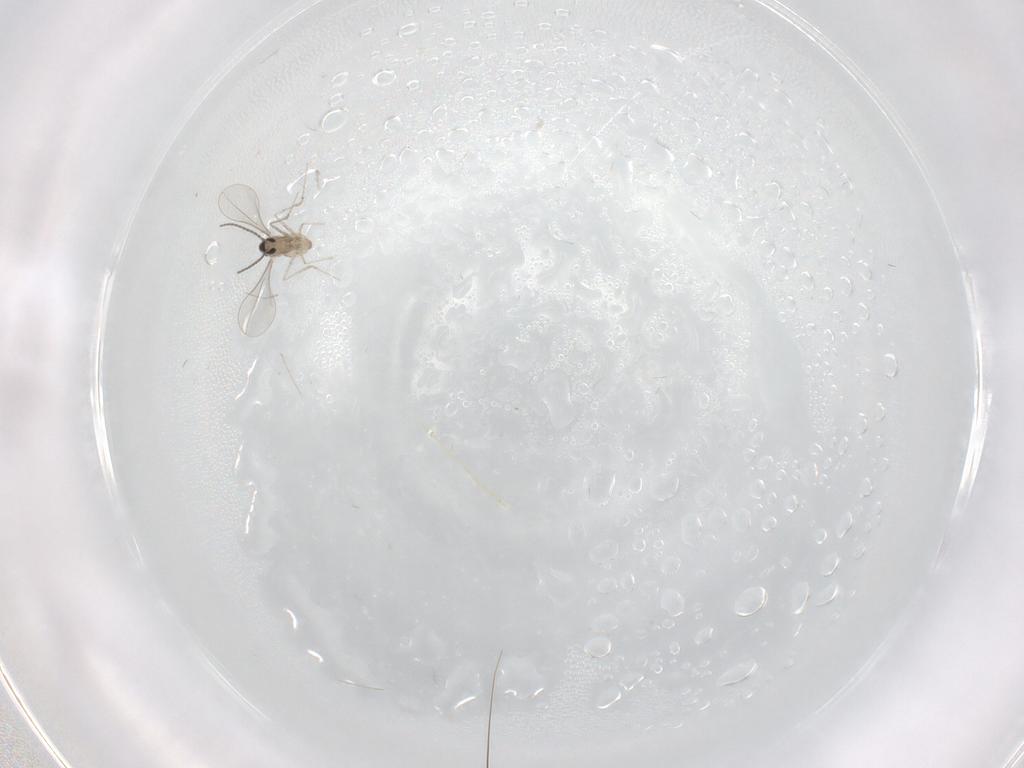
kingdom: Animalia
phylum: Arthropoda
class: Insecta
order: Diptera
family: Cecidomyiidae
